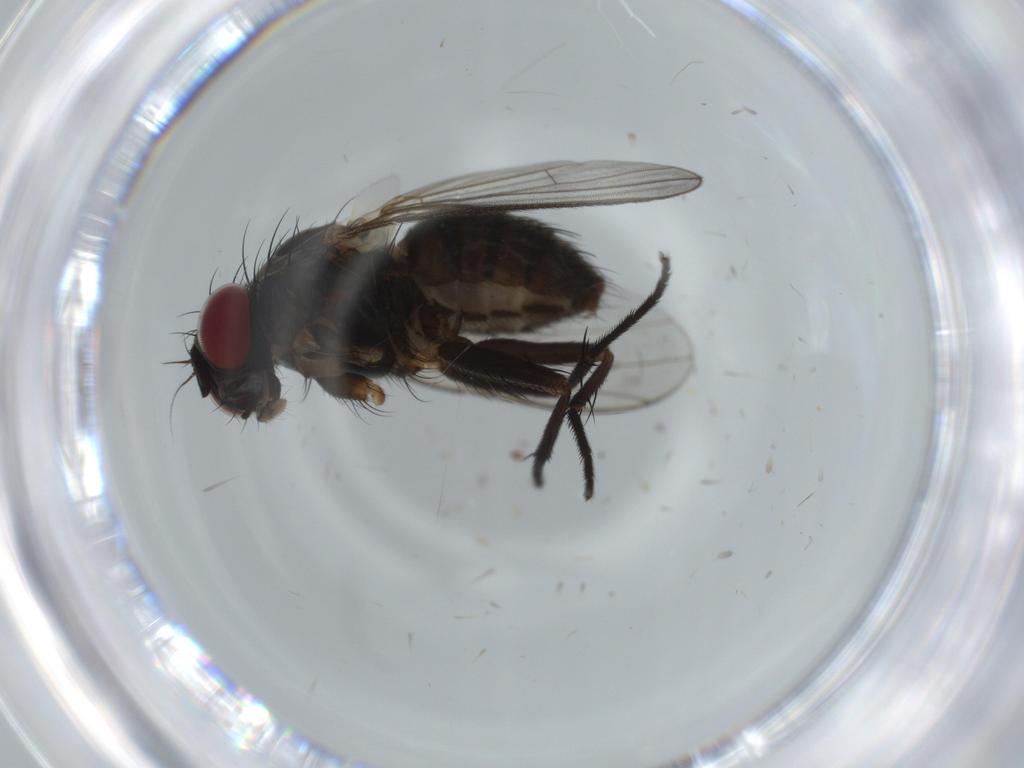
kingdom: Animalia
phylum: Arthropoda
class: Insecta
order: Diptera
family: Muscidae
